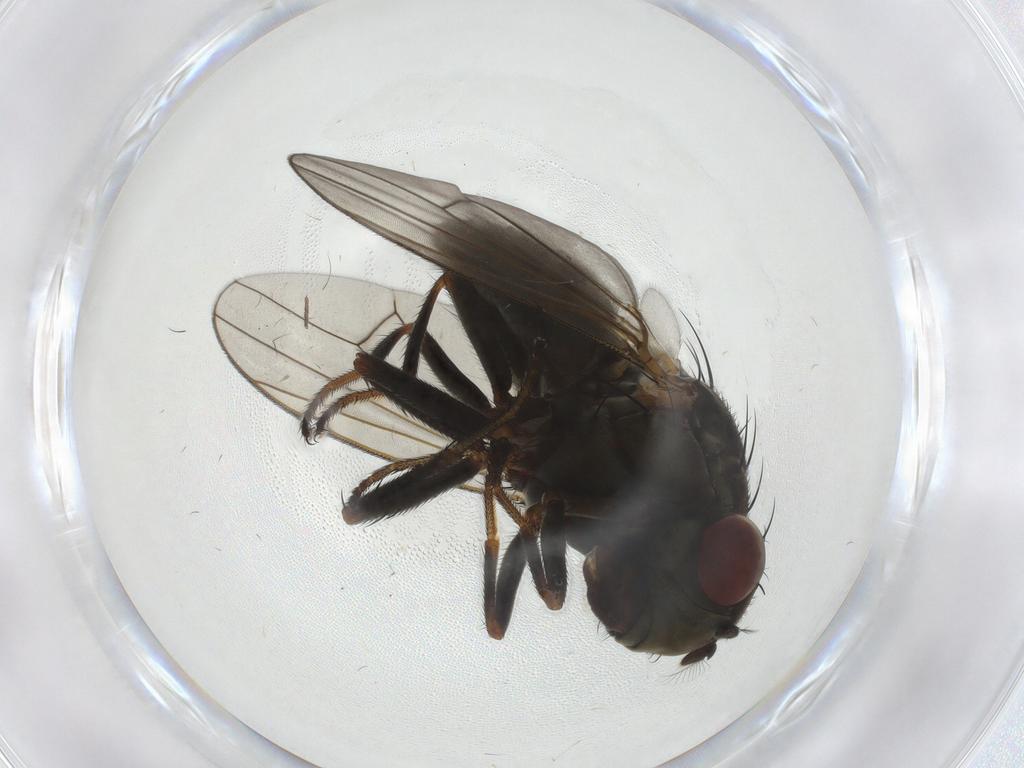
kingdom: Animalia
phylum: Arthropoda
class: Insecta
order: Diptera
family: Ephydridae
